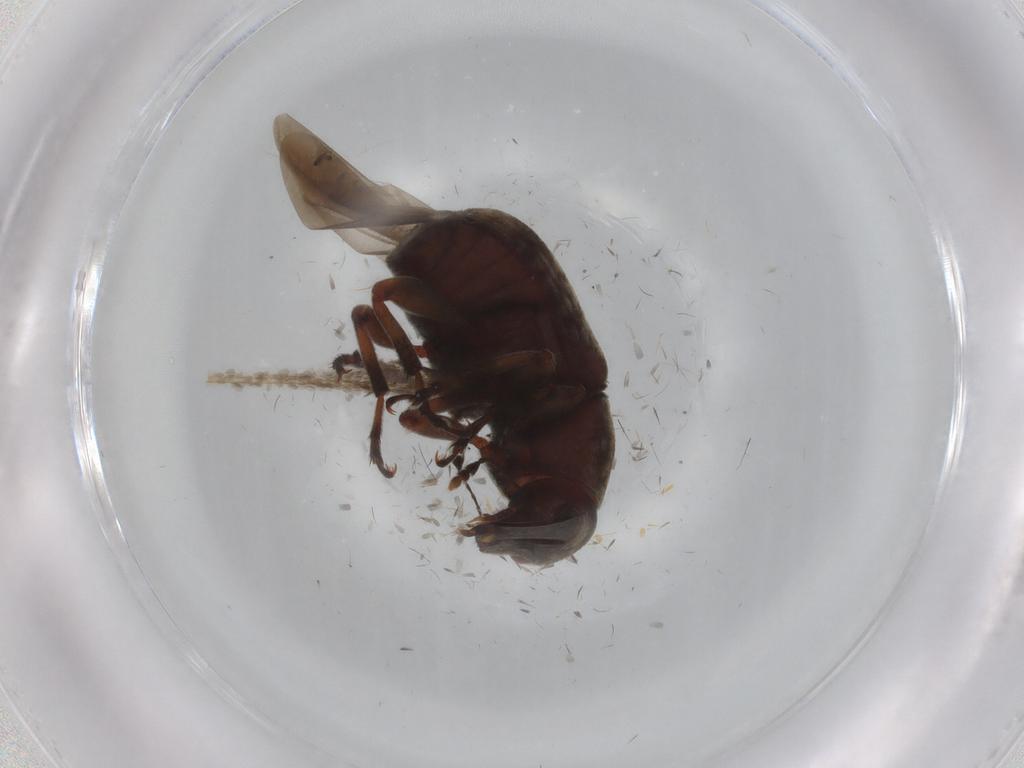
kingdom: Animalia
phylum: Arthropoda
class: Insecta
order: Coleoptera
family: Anthribidae
